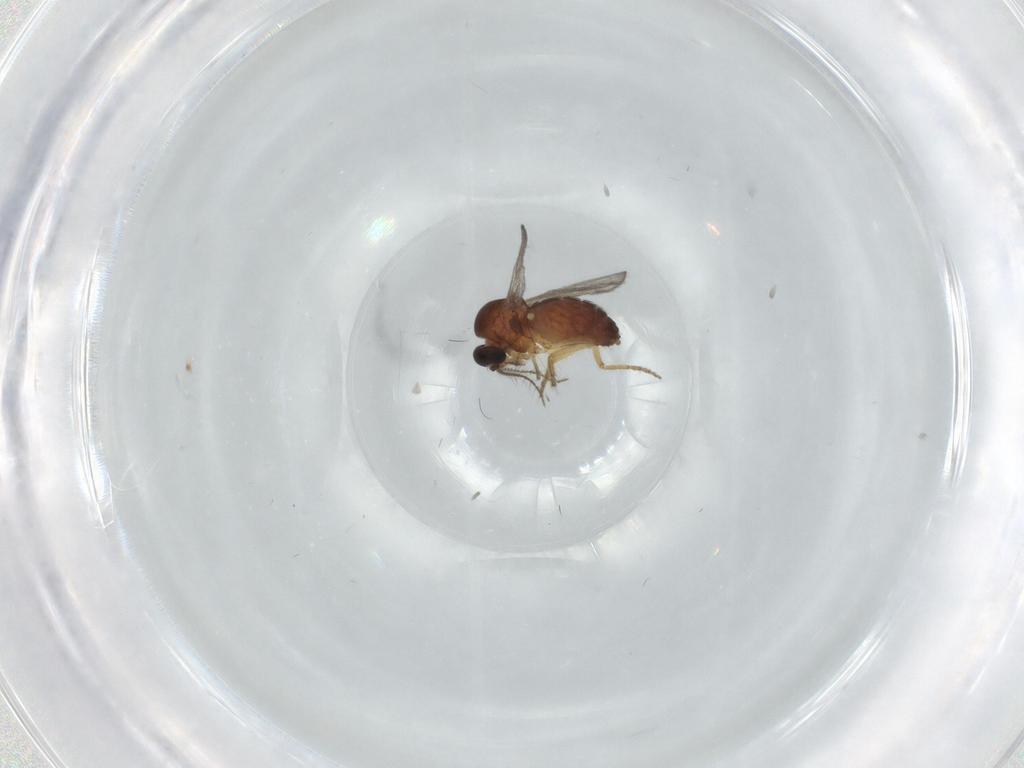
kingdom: Animalia
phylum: Arthropoda
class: Insecta
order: Diptera
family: Ceratopogonidae
